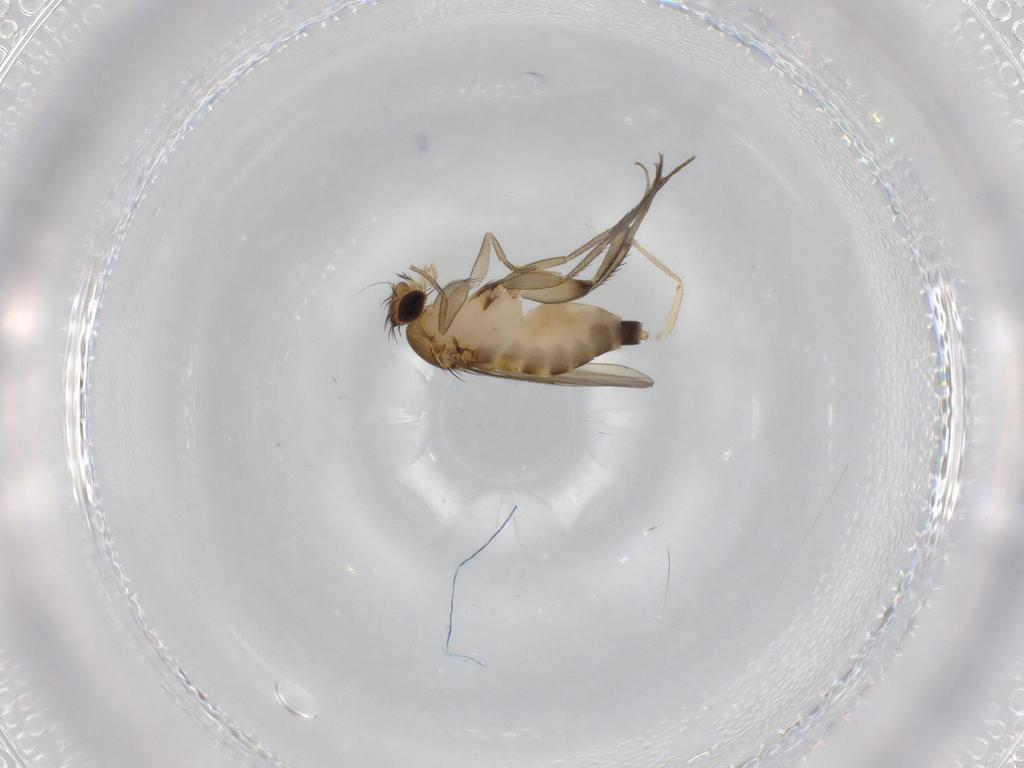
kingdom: Animalia
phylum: Arthropoda
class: Insecta
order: Diptera
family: Phoridae
